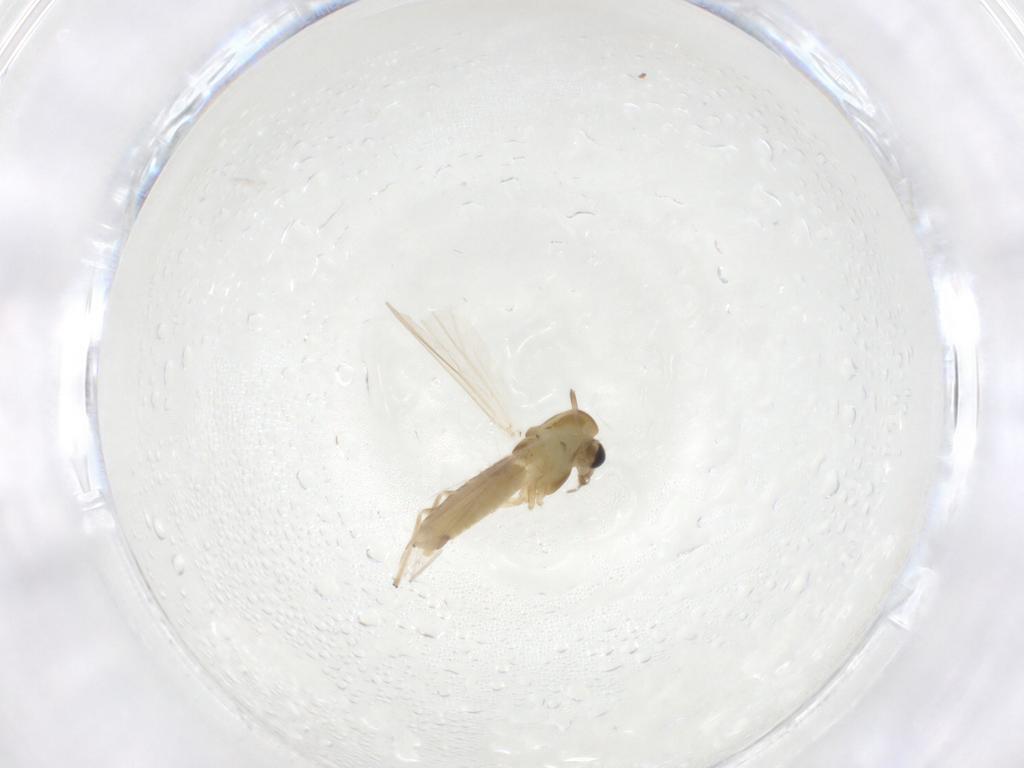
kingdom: Animalia
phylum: Arthropoda
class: Insecta
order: Diptera
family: Chironomidae
